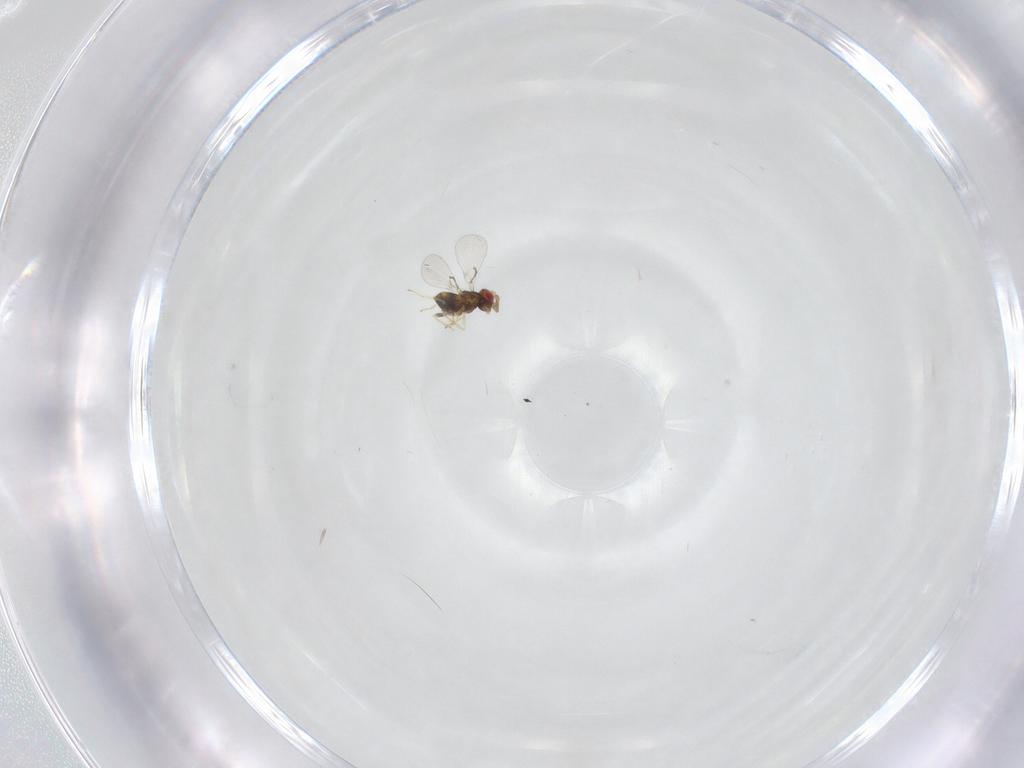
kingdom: Animalia
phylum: Arthropoda
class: Insecta
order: Hymenoptera
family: Trichogrammatidae
